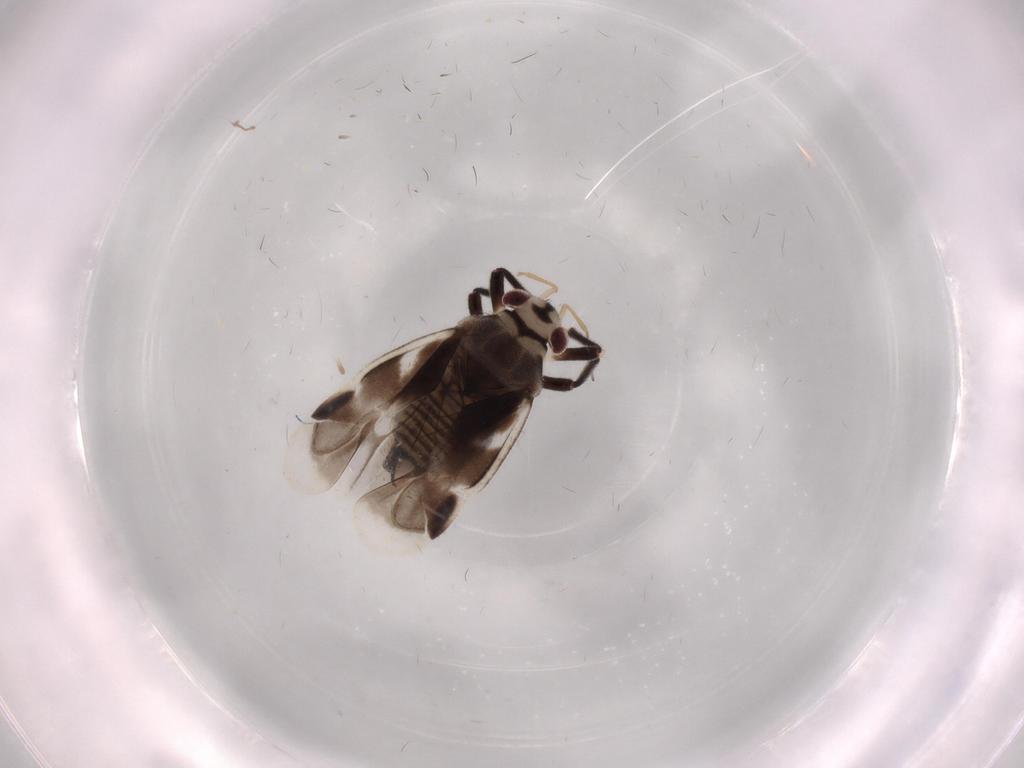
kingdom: Animalia
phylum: Arthropoda
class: Insecta
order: Hemiptera
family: Miridae
